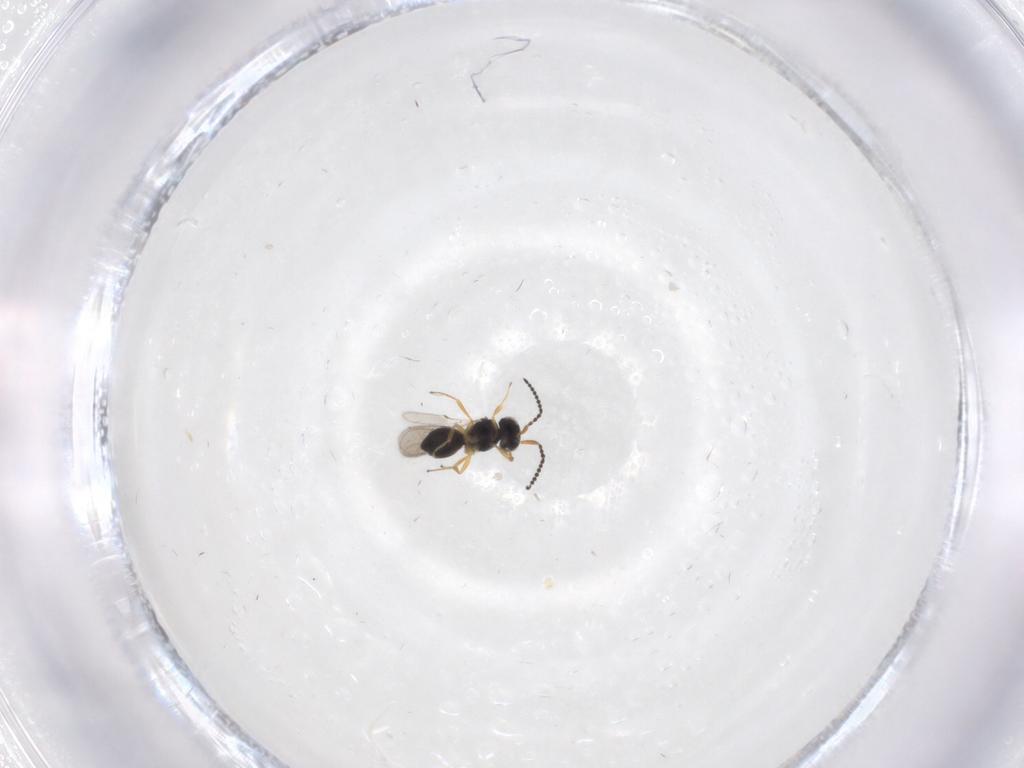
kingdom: Animalia
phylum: Arthropoda
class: Insecta
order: Hymenoptera
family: Scelionidae
